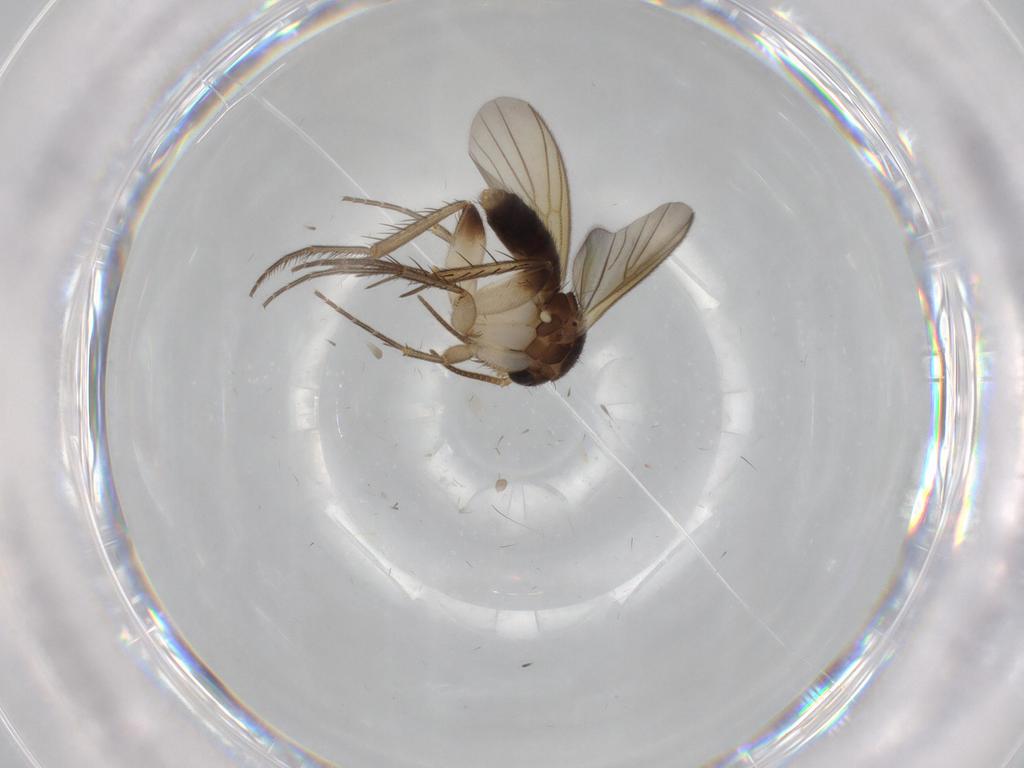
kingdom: Animalia
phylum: Arthropoda
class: Insecta
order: Diptera
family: Mycetophilidae
